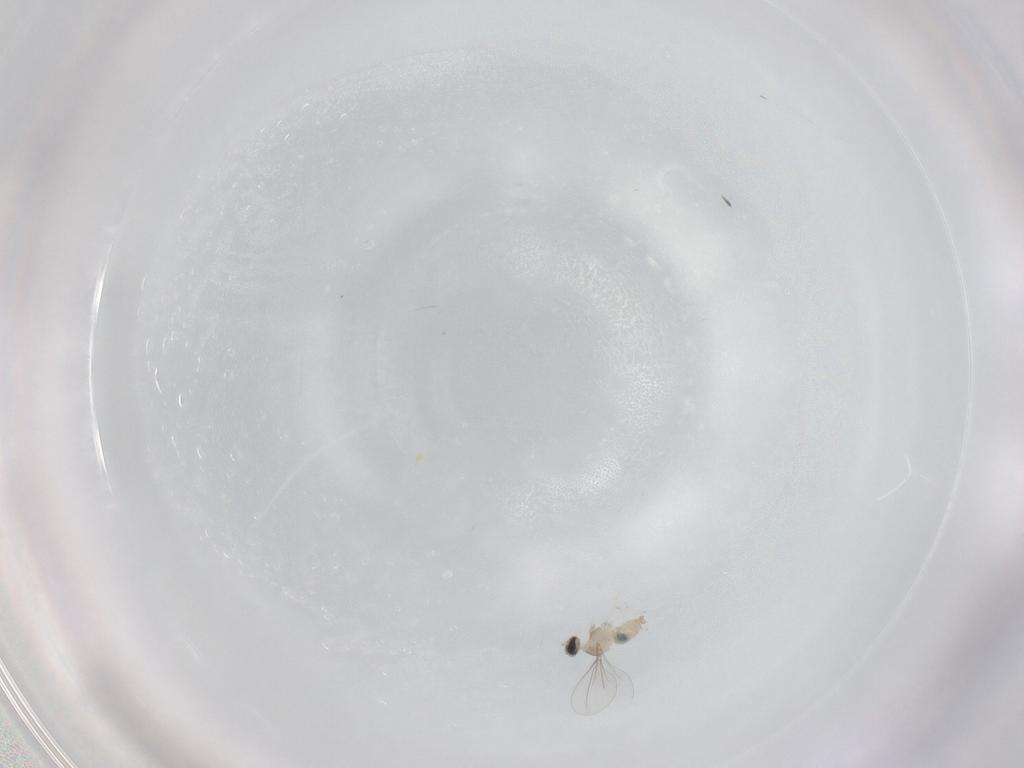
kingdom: Animalia
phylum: Arthropoda
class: Insecta
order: Diptera
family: Cecidomyiidae
